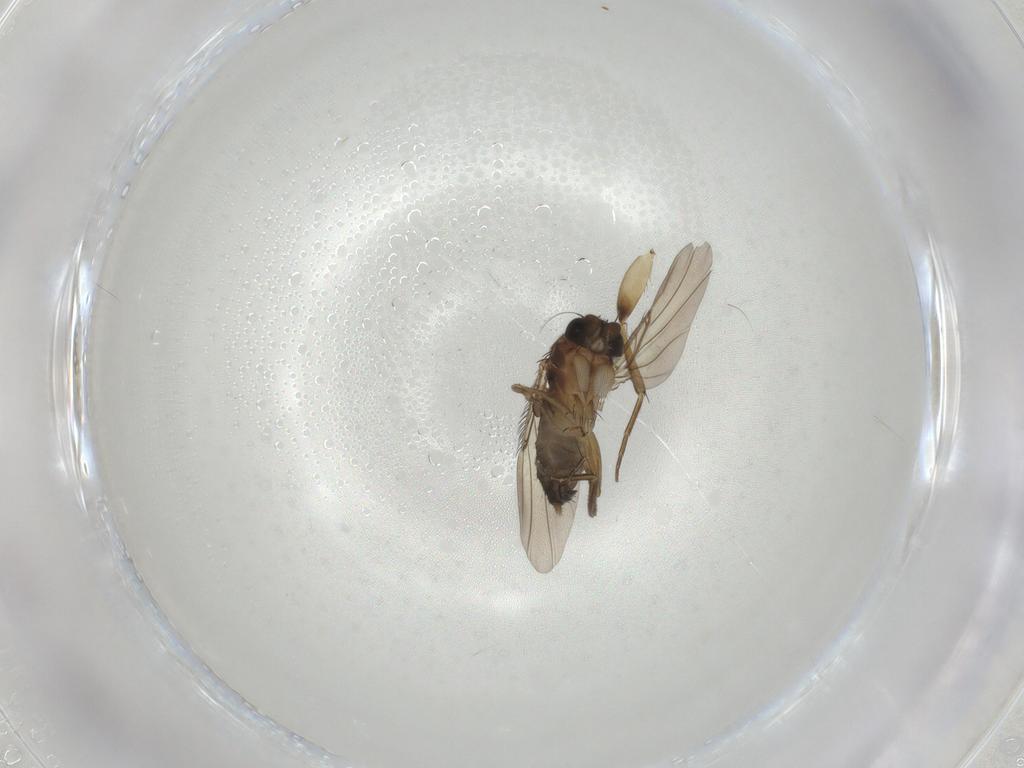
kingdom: Animalia
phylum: Arthropoda
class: Insecta
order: Diptera
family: Phoridae
